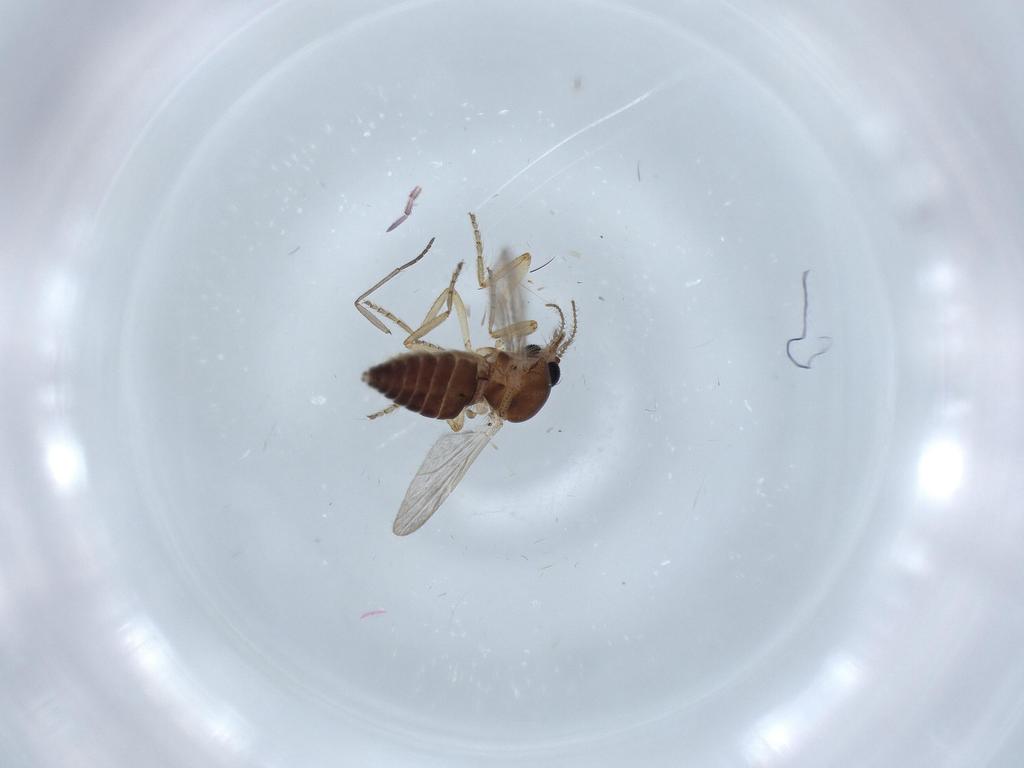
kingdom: Animalia
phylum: Arthropoda
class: Insecta
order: Diptera
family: Ceratopogonidae
